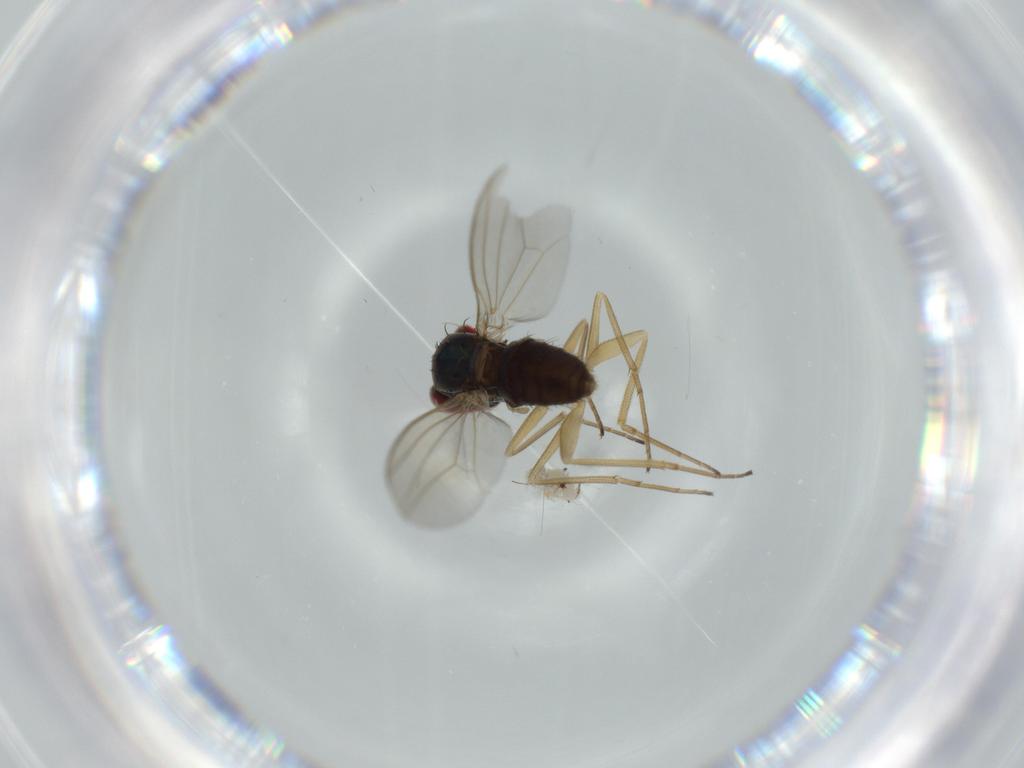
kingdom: Animalia
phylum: Arthropoda
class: Insecta
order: Diptera
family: Dolichopodidae
